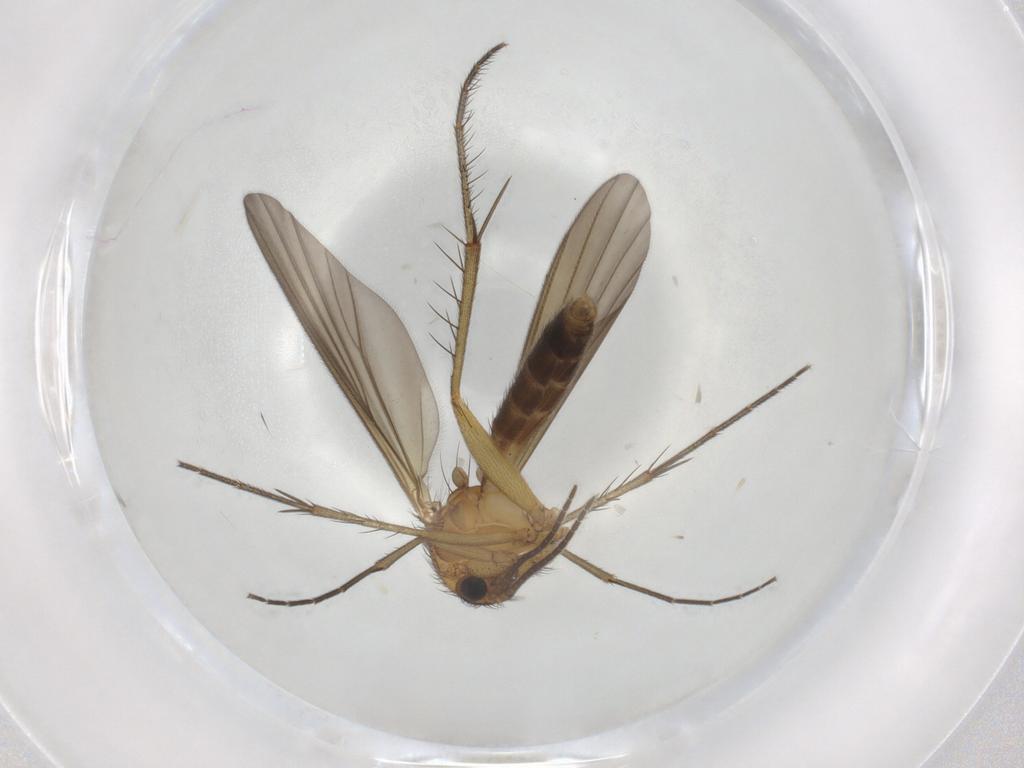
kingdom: Animalia
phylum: Arthropoda
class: Insecta
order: Diptera
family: Mycetophilidae
